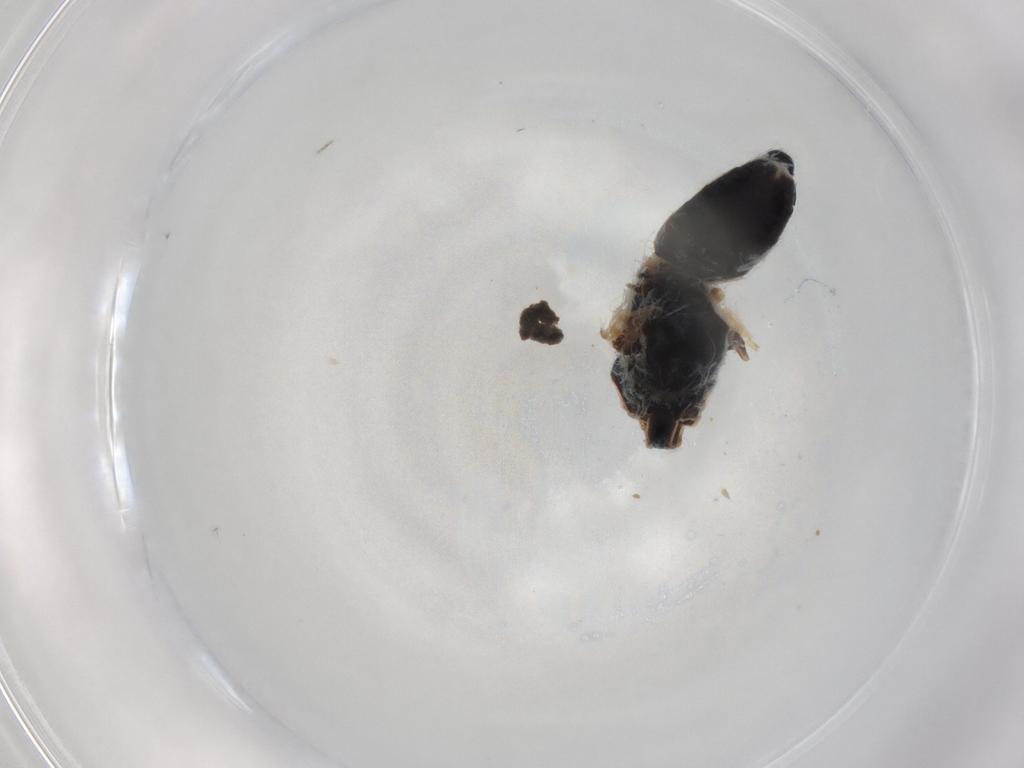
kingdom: Animalia
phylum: Arthropoda
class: Insecta
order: Diptera
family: Pipunculidae
